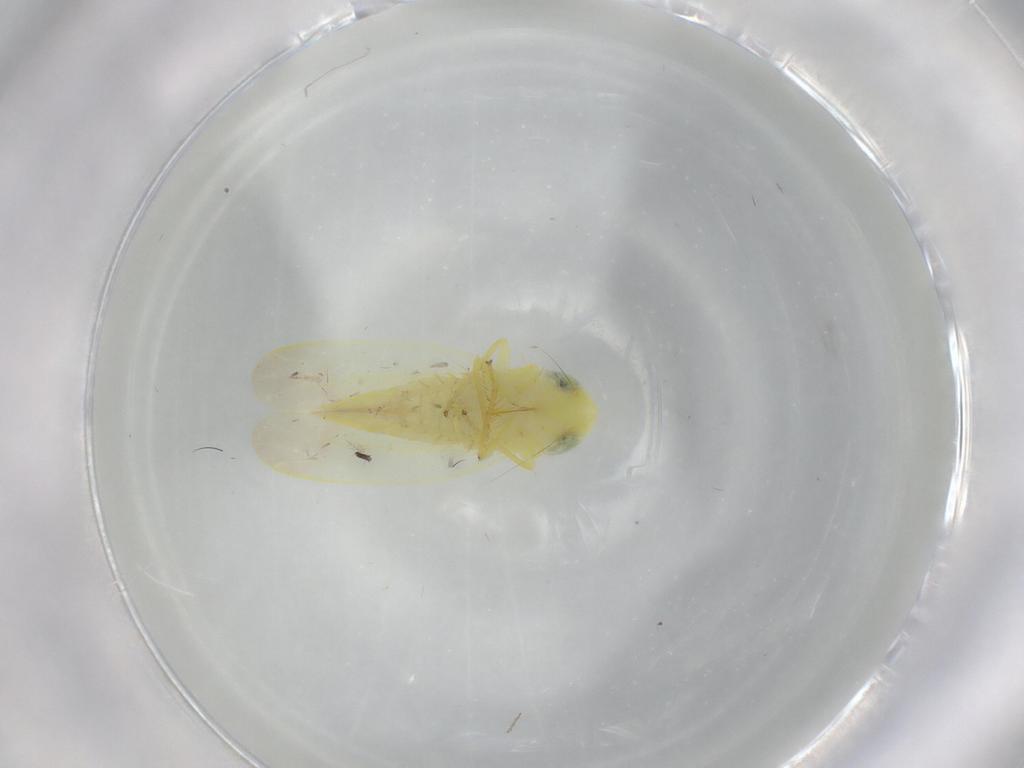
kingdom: Animalia
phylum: Arthropoda
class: Insecta
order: Hemiptera
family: Cicadellidae
